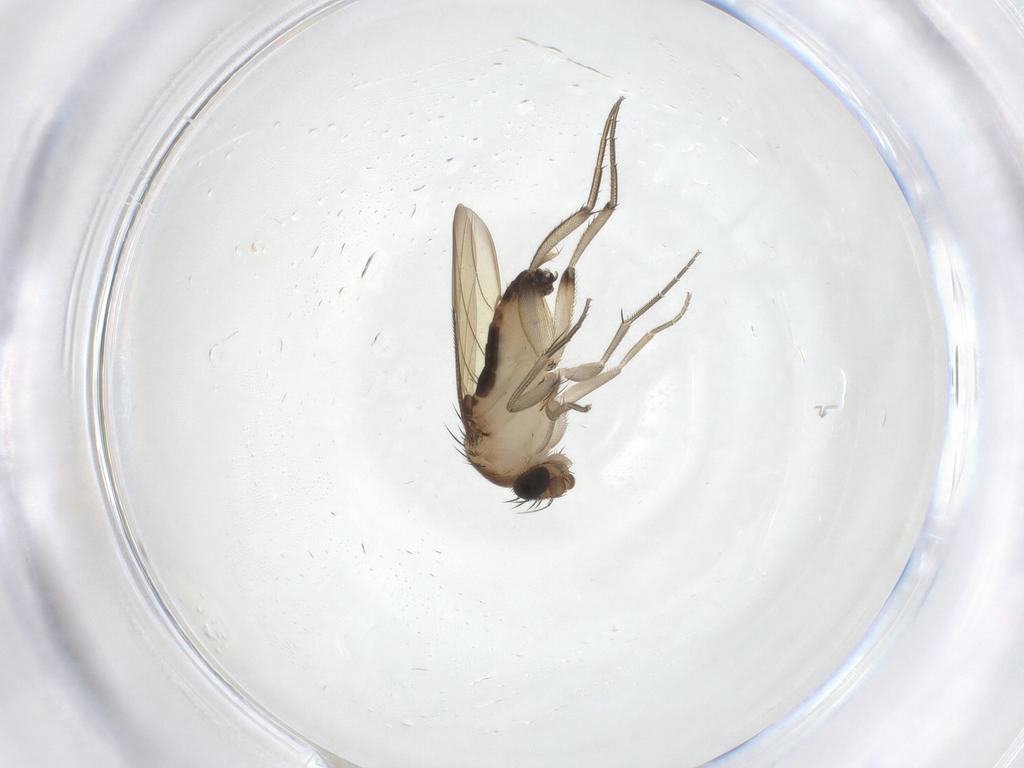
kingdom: Animalia
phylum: Arthropoda
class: Insecta
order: Diptera
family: Phoridae
